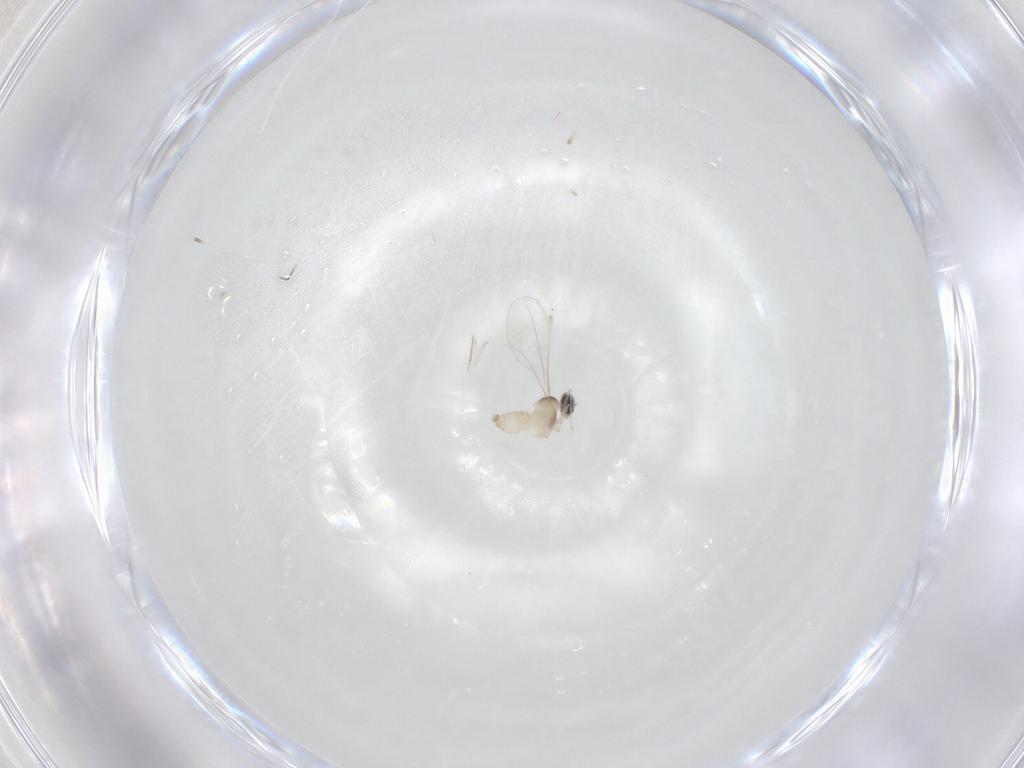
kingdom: Animalia
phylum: Arthropoda
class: Insecta
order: Diptera
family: Cecidomyiidae
